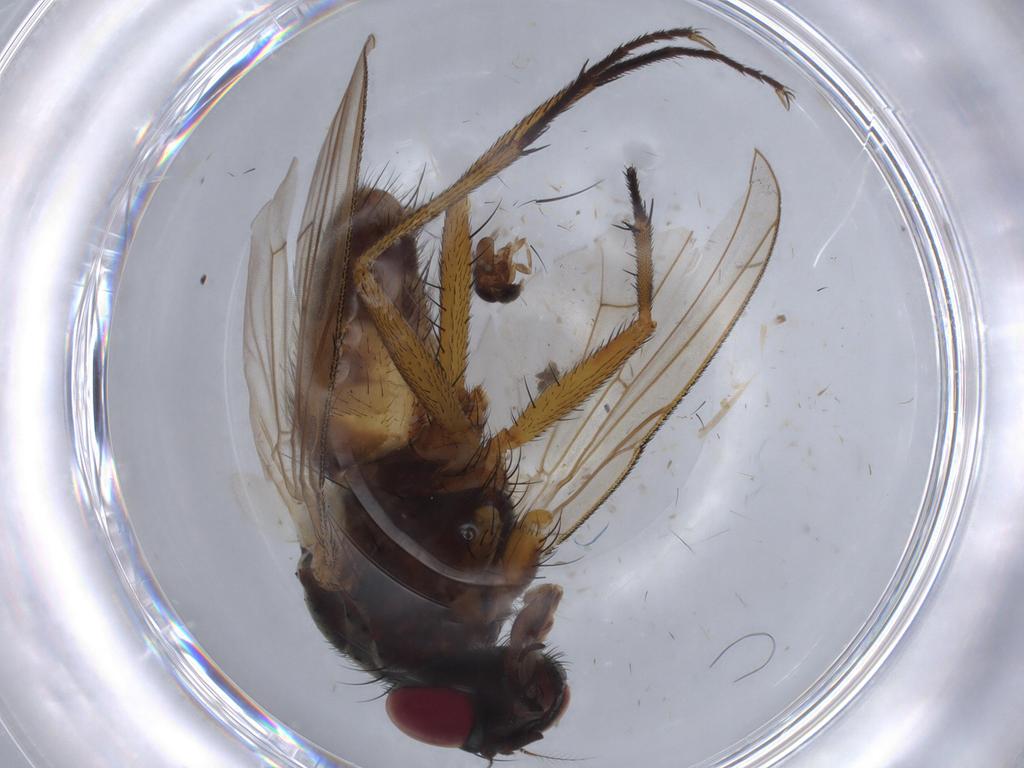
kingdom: Animalia
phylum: Arthropoda
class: Insecta
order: Diptera
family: Muscidae
